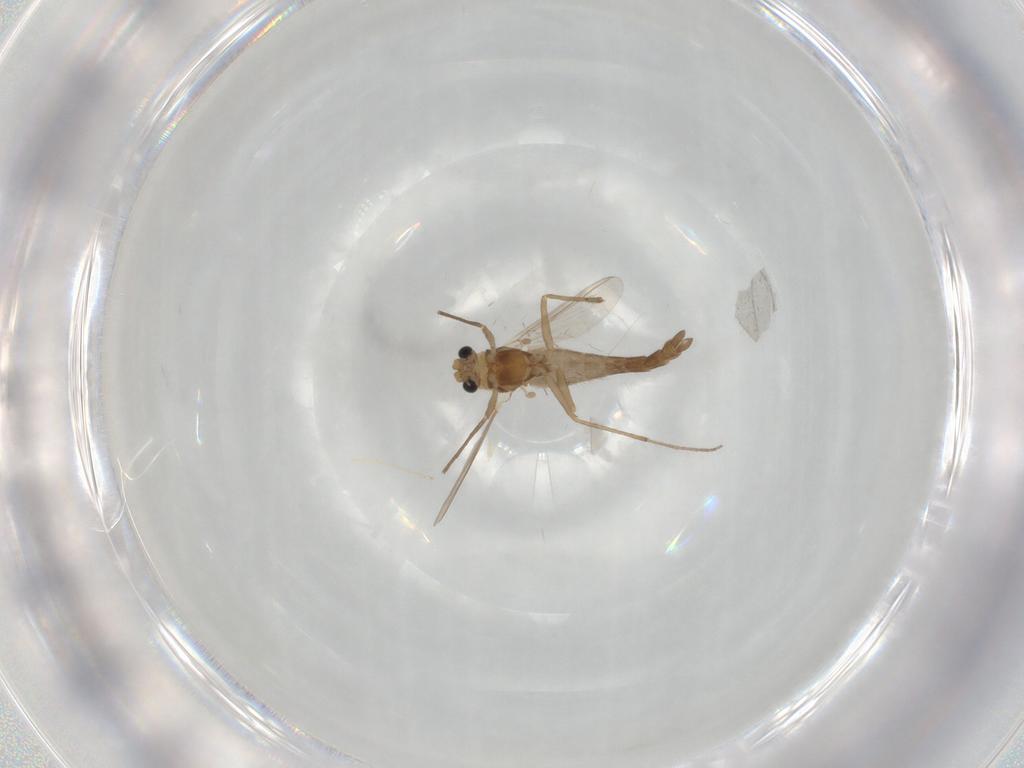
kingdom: Animalia
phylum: Arthropoda
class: Insecta
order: Diptera
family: Chironomidae
